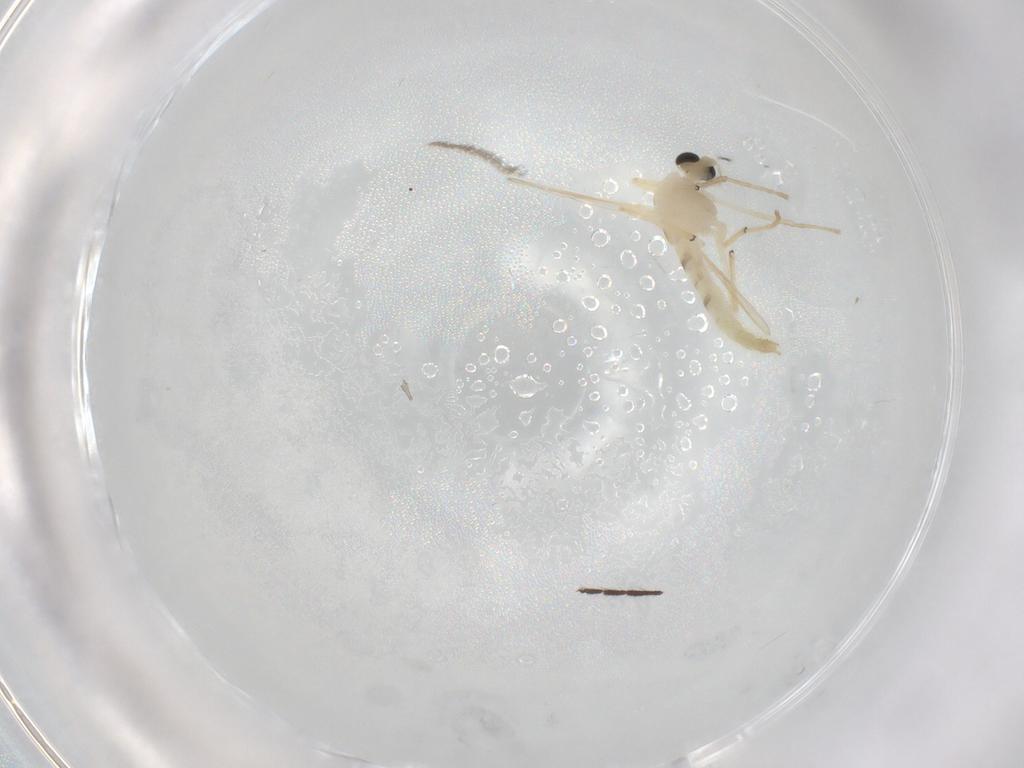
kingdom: Animalia
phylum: Arthropoda
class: Insecta
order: Diptera
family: Chironomidae
